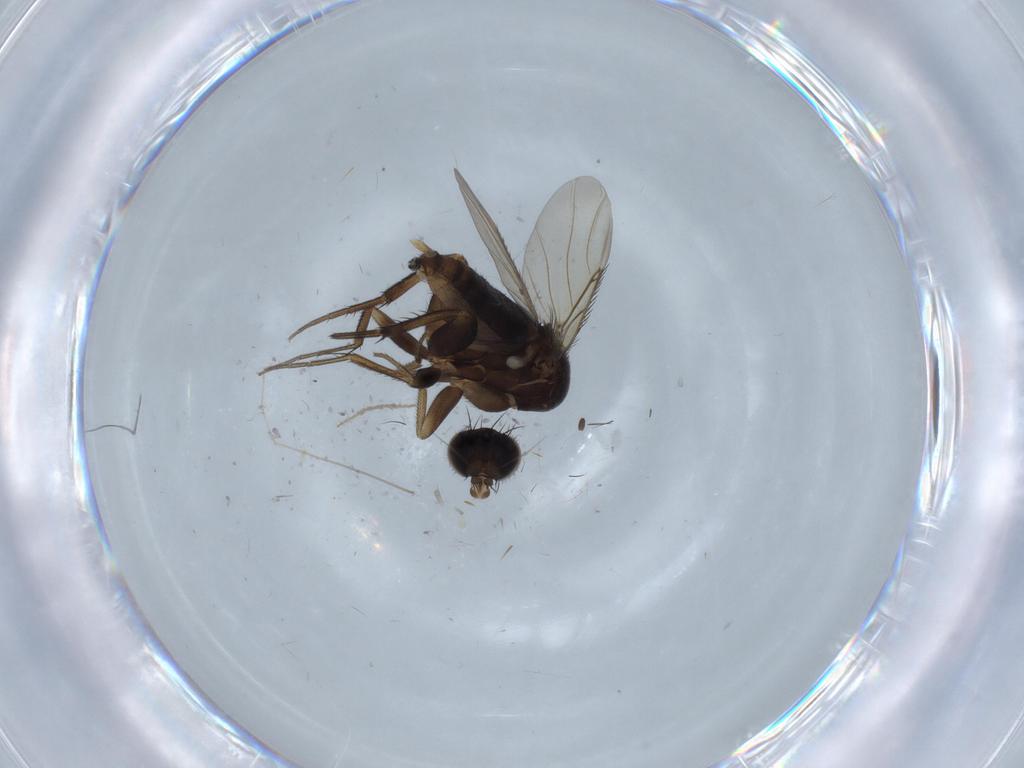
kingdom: Animalia
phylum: Arthropoda
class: Insecta
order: Diptera
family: Phoridae
